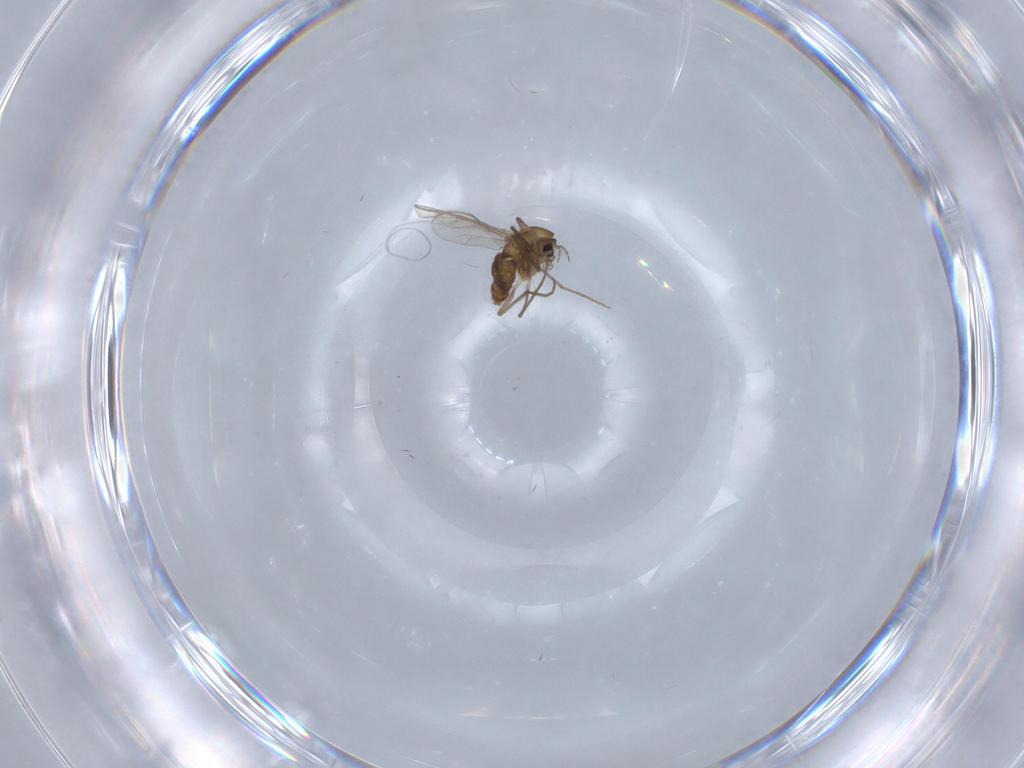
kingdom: Animalia
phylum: Arthropoda
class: Insecta
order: Diptera
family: Chironomidae
